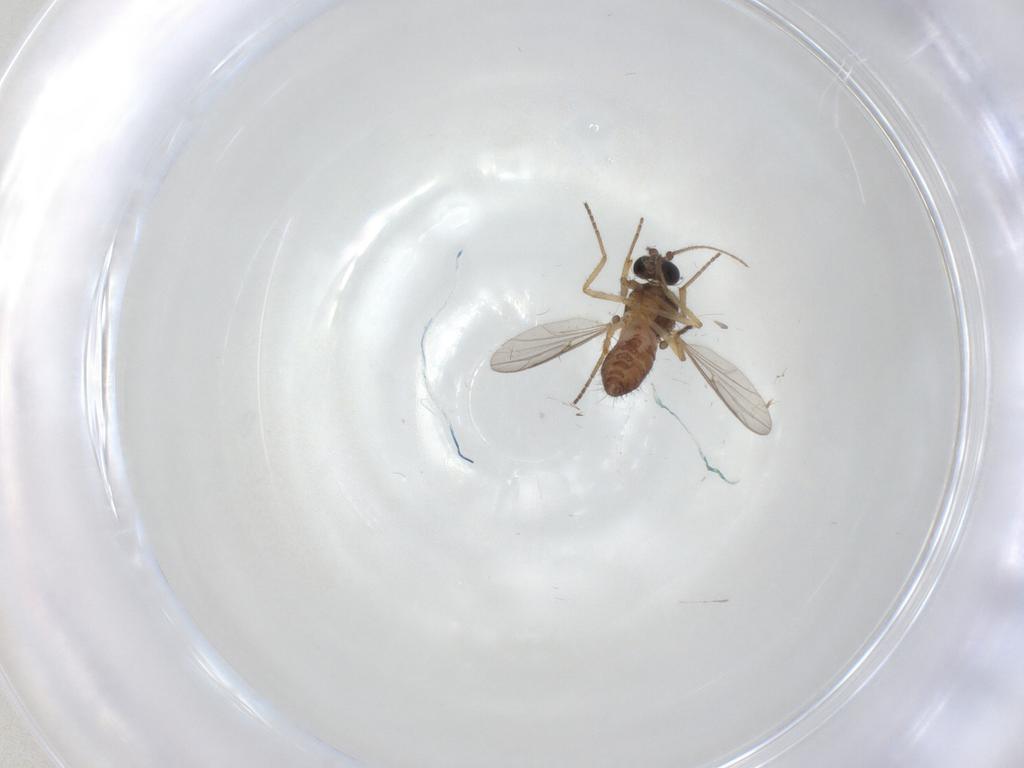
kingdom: Animalia
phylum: Arthropoda
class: Insecta
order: Diptera
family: Ceratopogonidae
